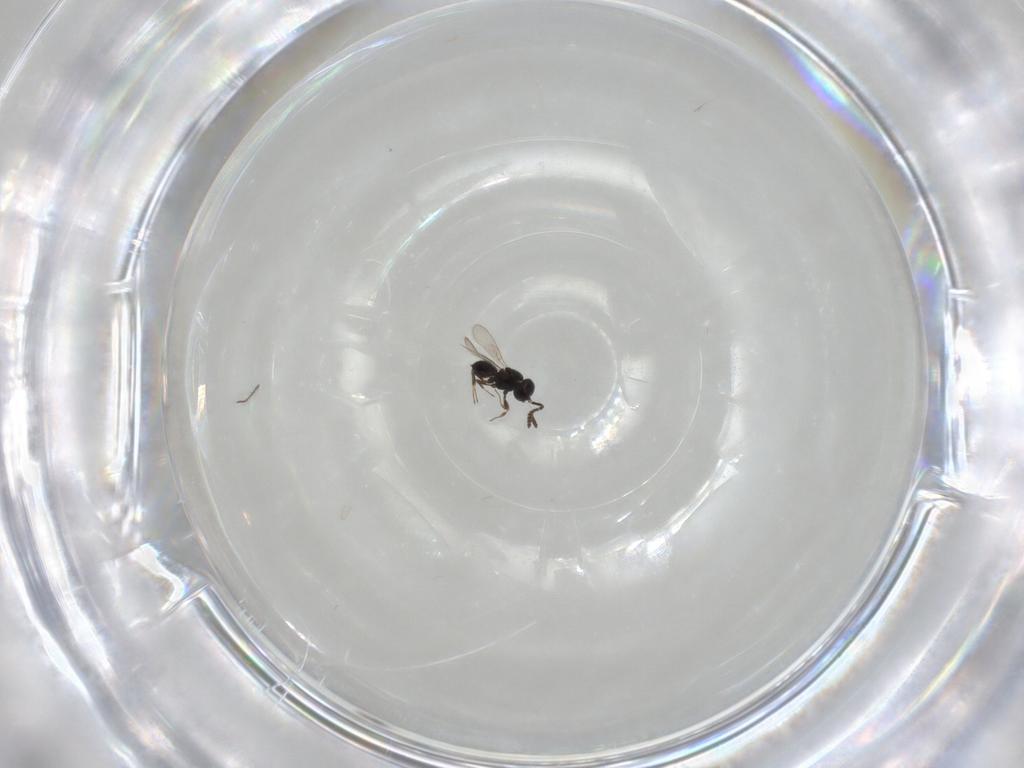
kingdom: Animalia
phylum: Arthropoda
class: Insecta
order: Hymenoptera
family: Scelionidae
